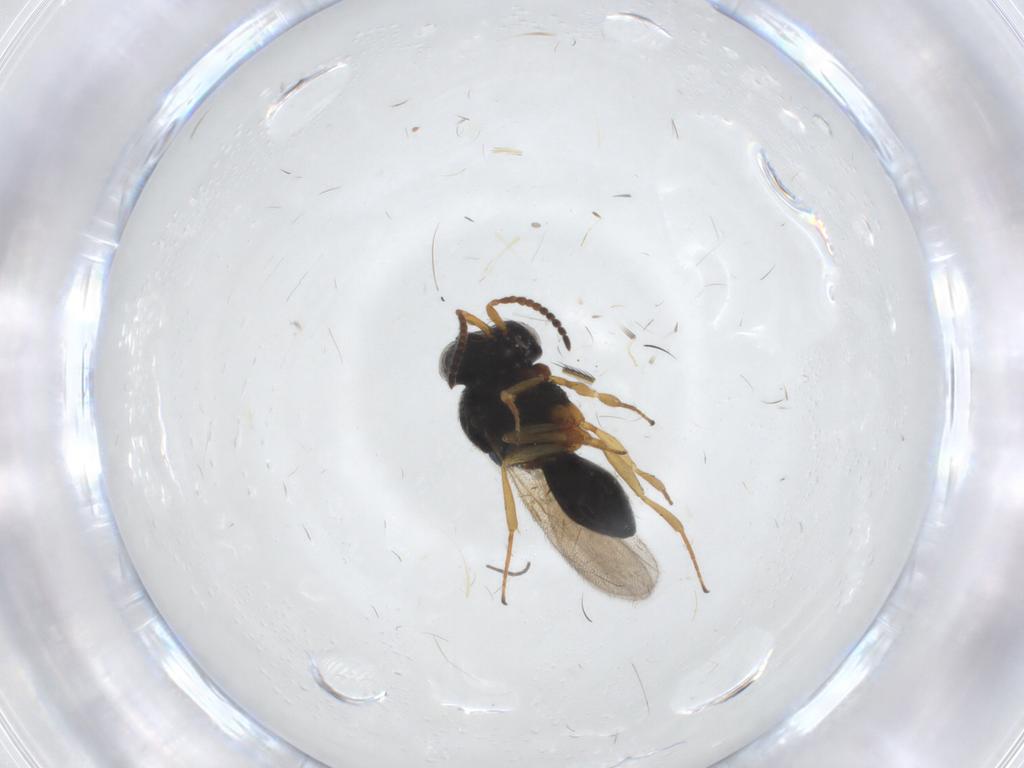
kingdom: Animalia
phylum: Arthropoda
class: Insecta
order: Hymenoptera
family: Scelionidae
